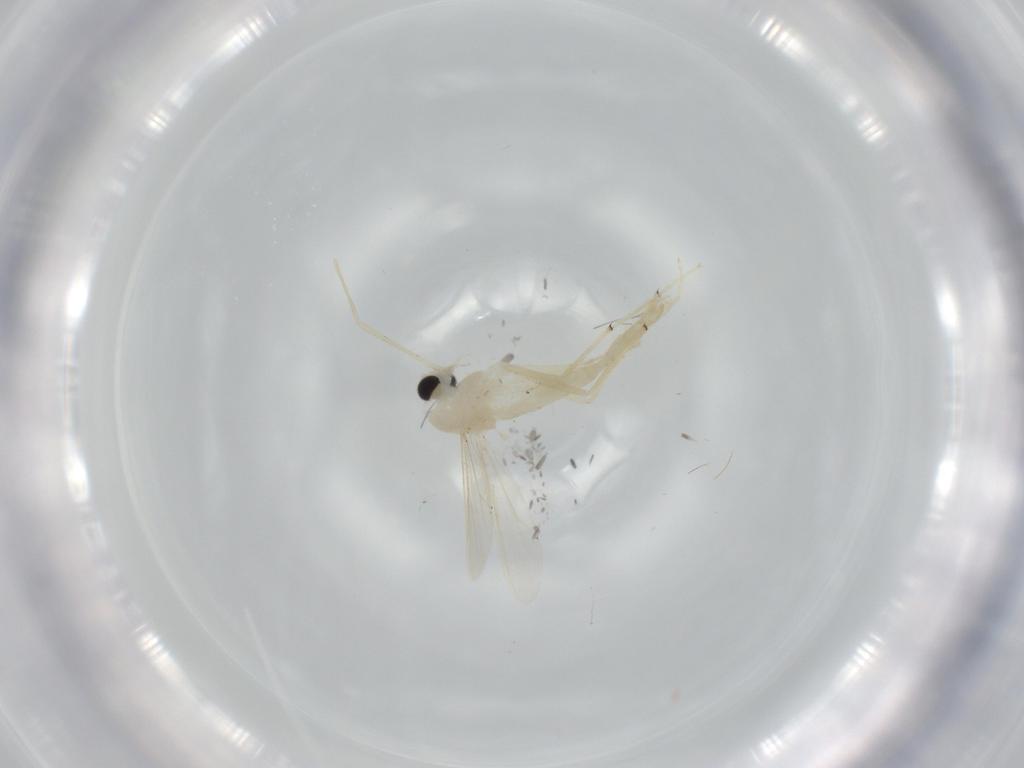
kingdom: Animalia
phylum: Arthropoda
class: Insecta
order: Diptera
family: Chironomidae
